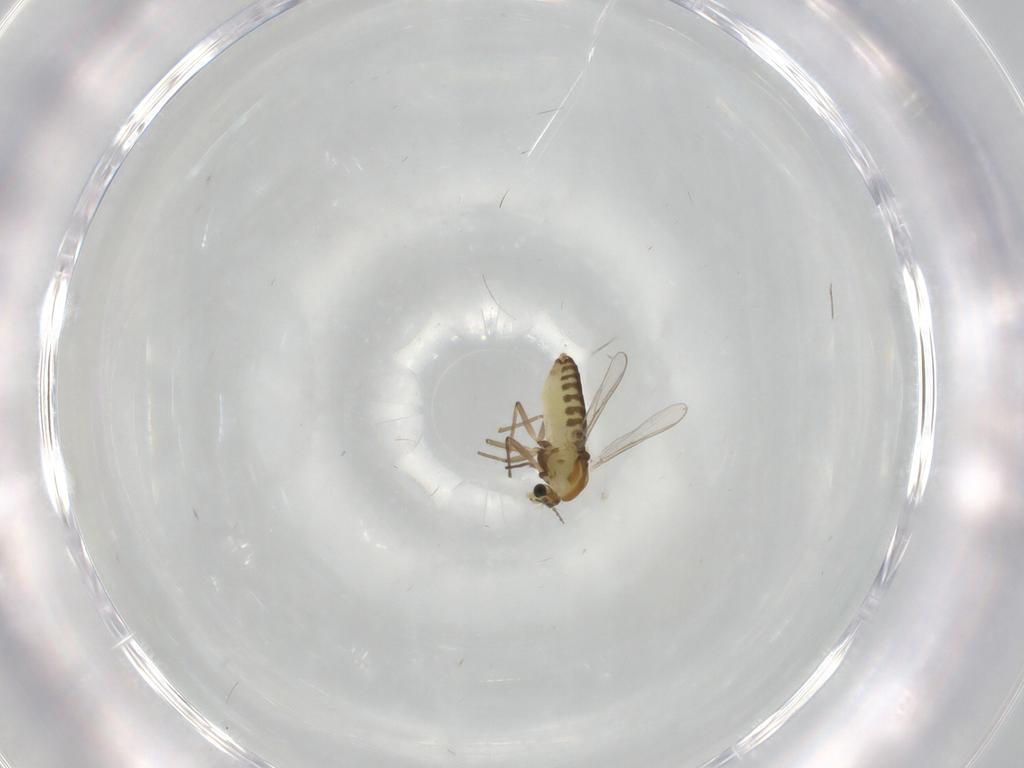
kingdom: Animalia
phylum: Arthropoda
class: Insecta
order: Diptera
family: Chironomidae
